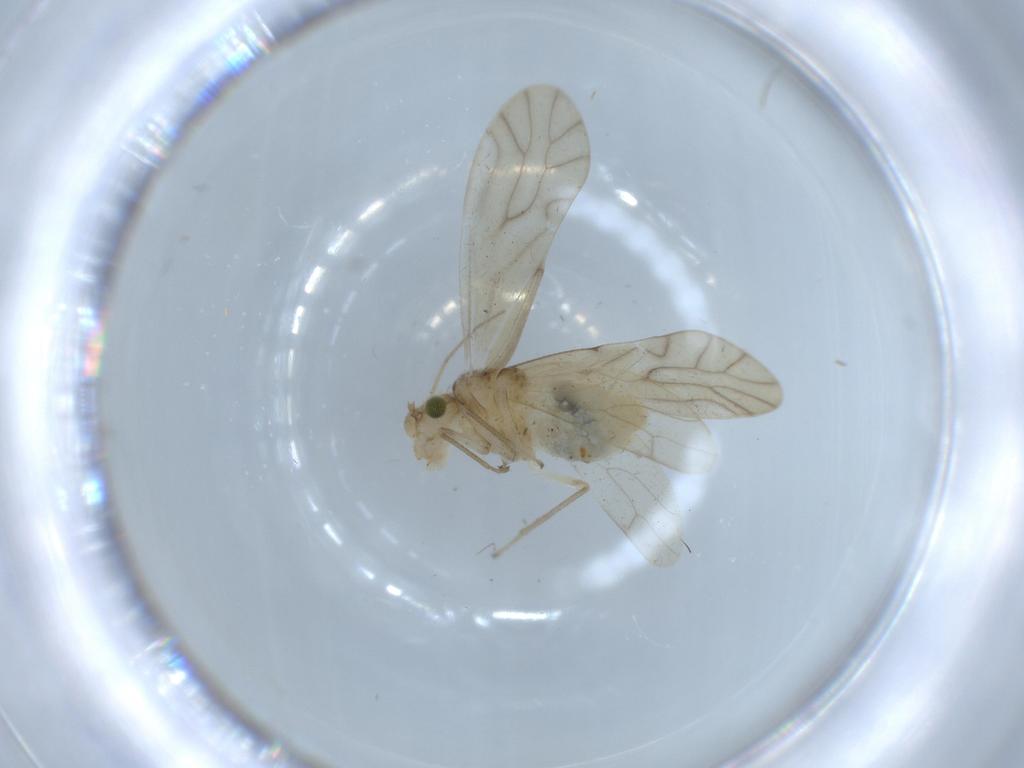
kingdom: Animalia
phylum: Arthropoda
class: Insecta
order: Psocodea
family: Caeciliusidae
